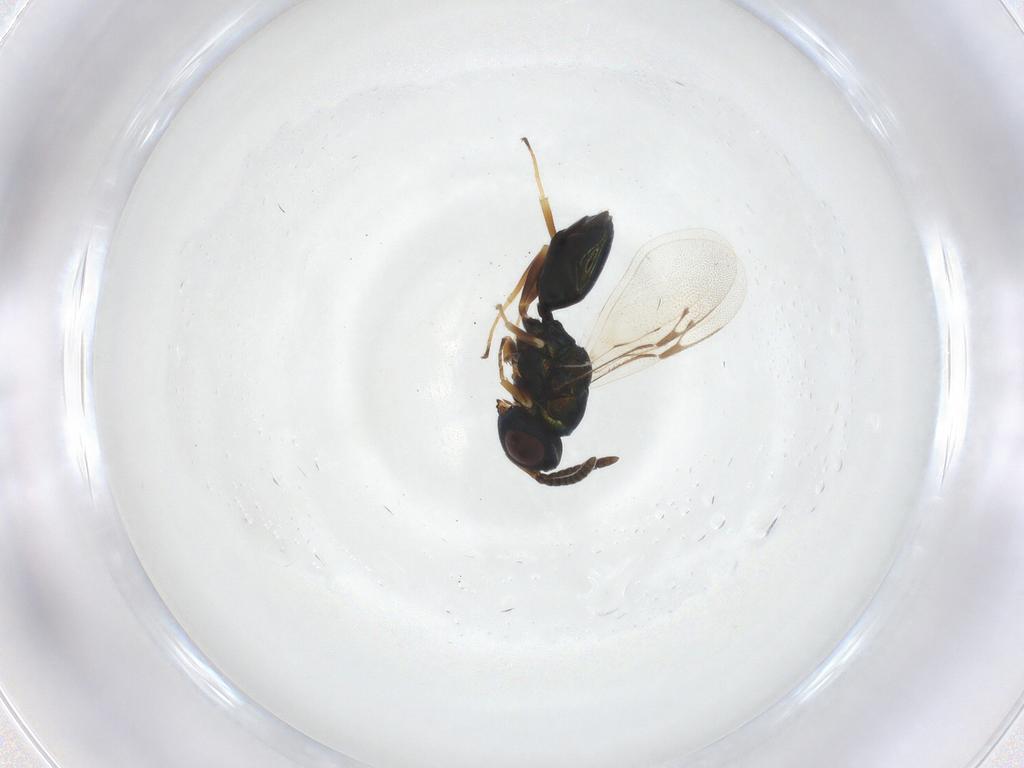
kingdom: Animalia
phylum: Arthropoda
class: Insecta
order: Hymenoptera
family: Pteromalidae
